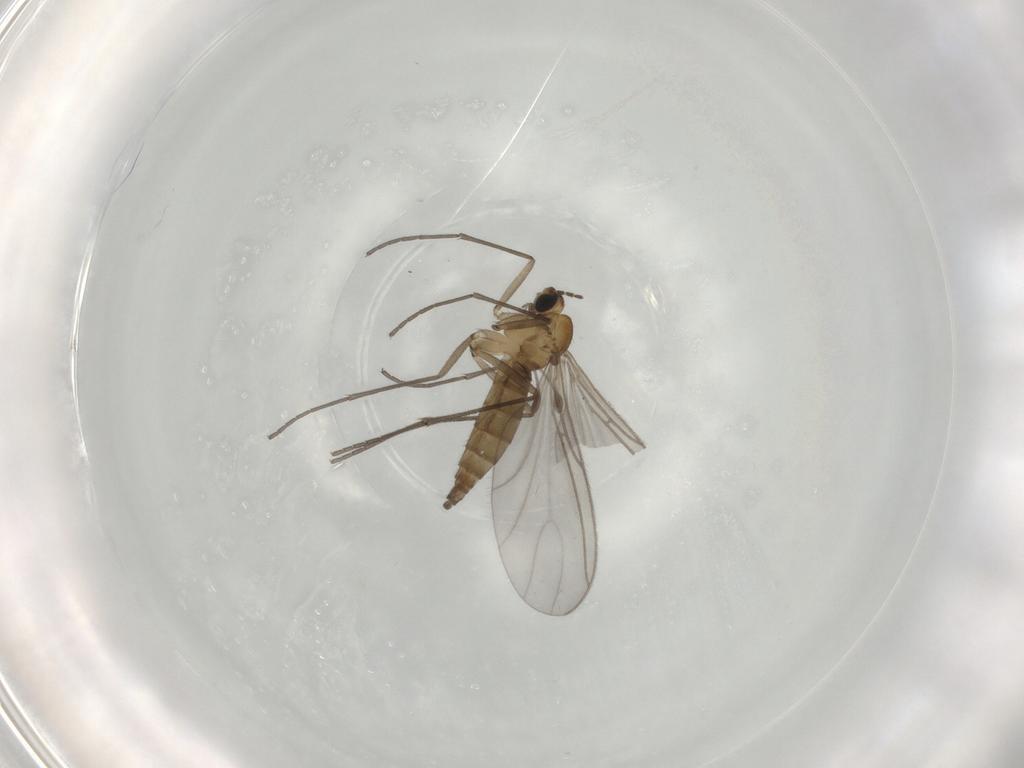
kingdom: Animalia
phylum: Arthropoda
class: Insecta
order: Diptera
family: Sciaridae
